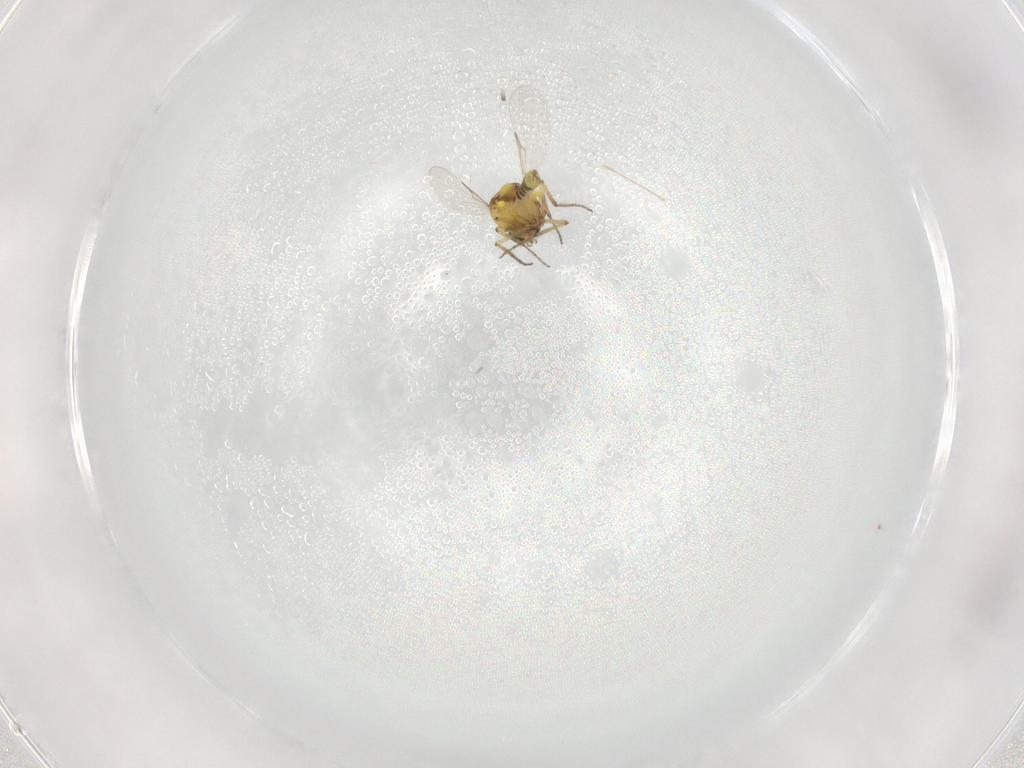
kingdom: Animalia
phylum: Arthropoda
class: Insecta
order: Diptera
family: Ceratopogonidae
